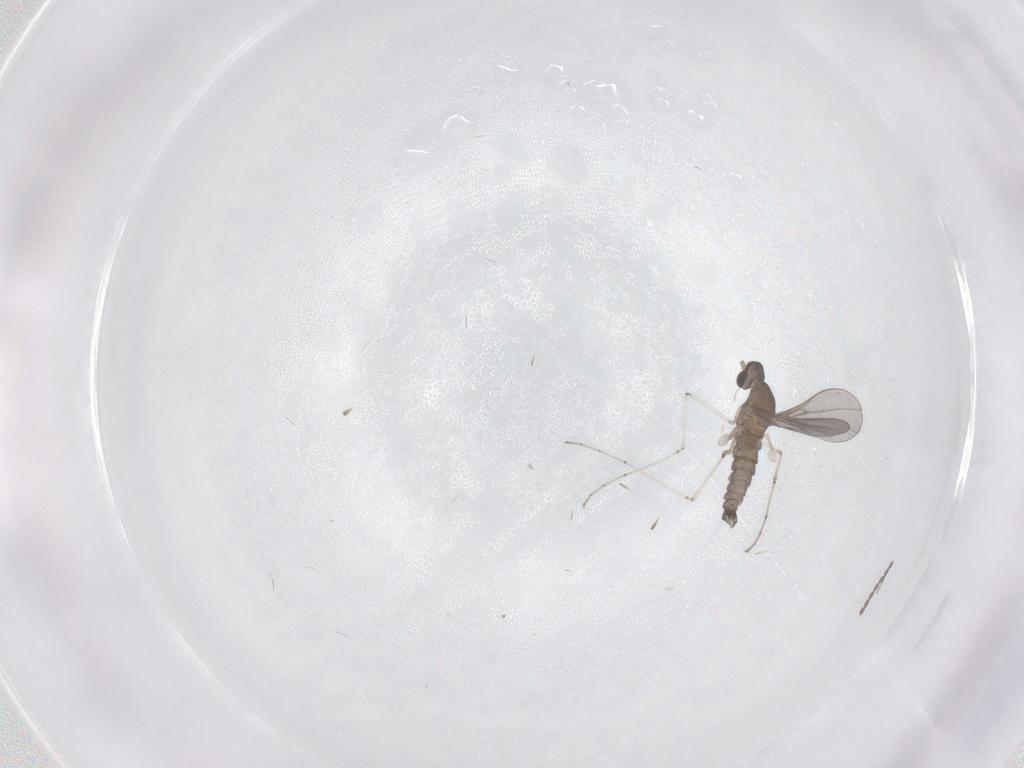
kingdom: Animalia
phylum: Arthropoda
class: Insecta
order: Diptera
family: Cecidomyiidae
